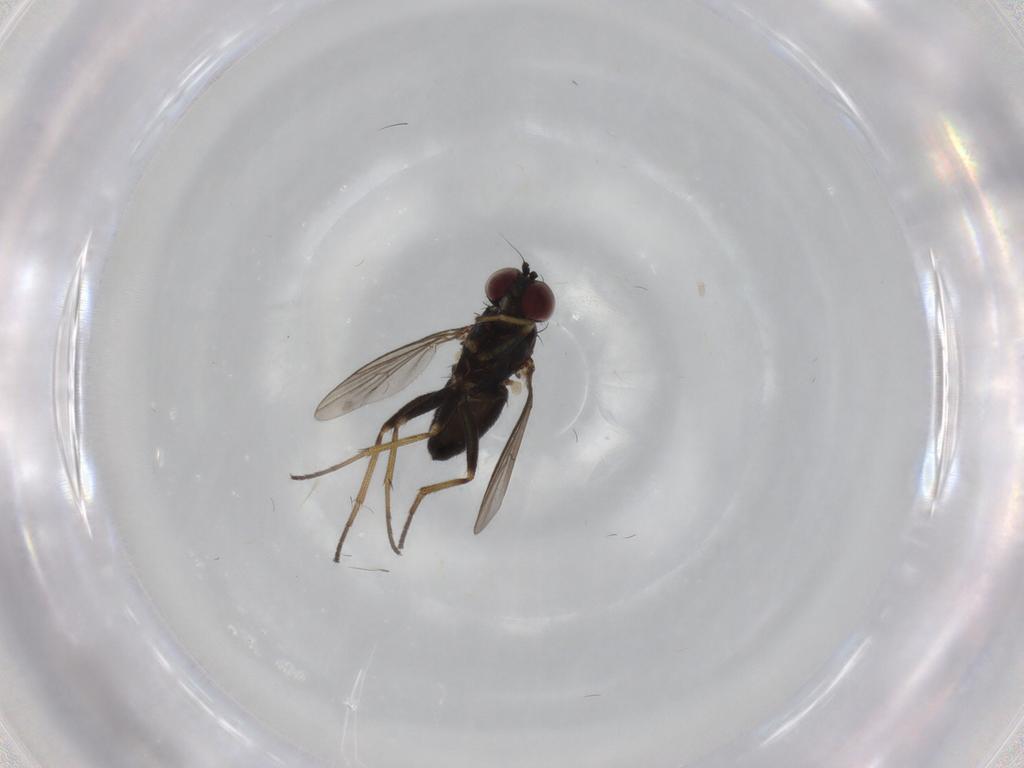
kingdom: Animalia
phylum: Arthropoda
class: Insecta
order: Diptera
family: Dolichopodidae
